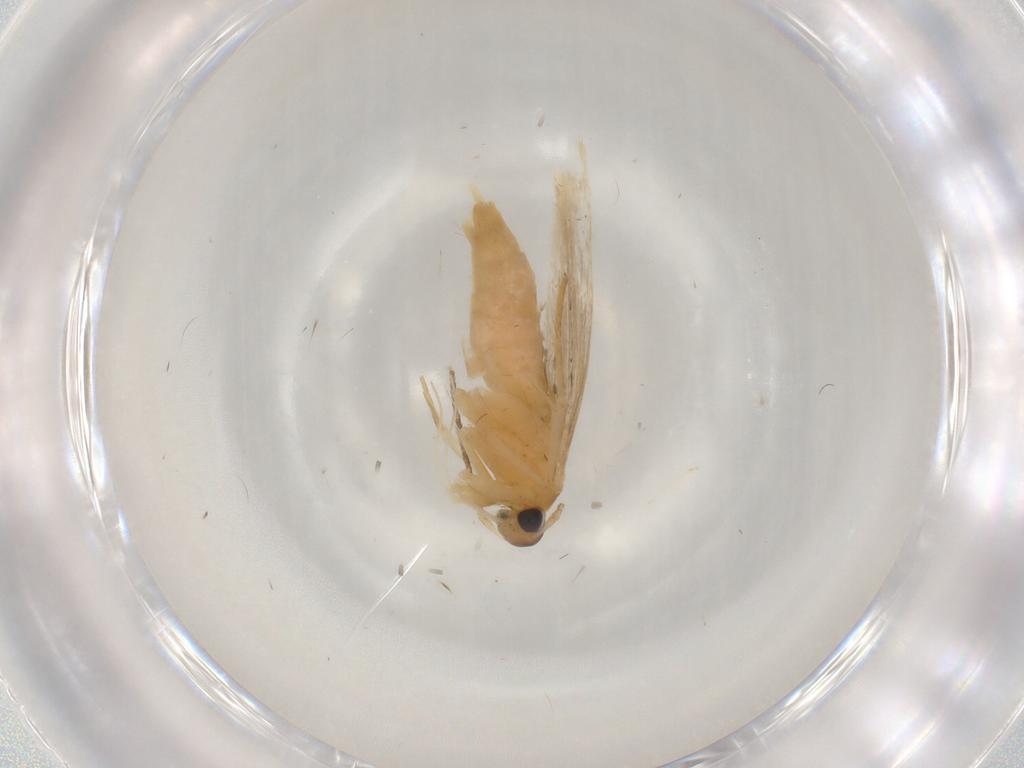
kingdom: Animalia
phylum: Arthropoda
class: Insecta
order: Lepidoptera
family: Lecithoceridae
